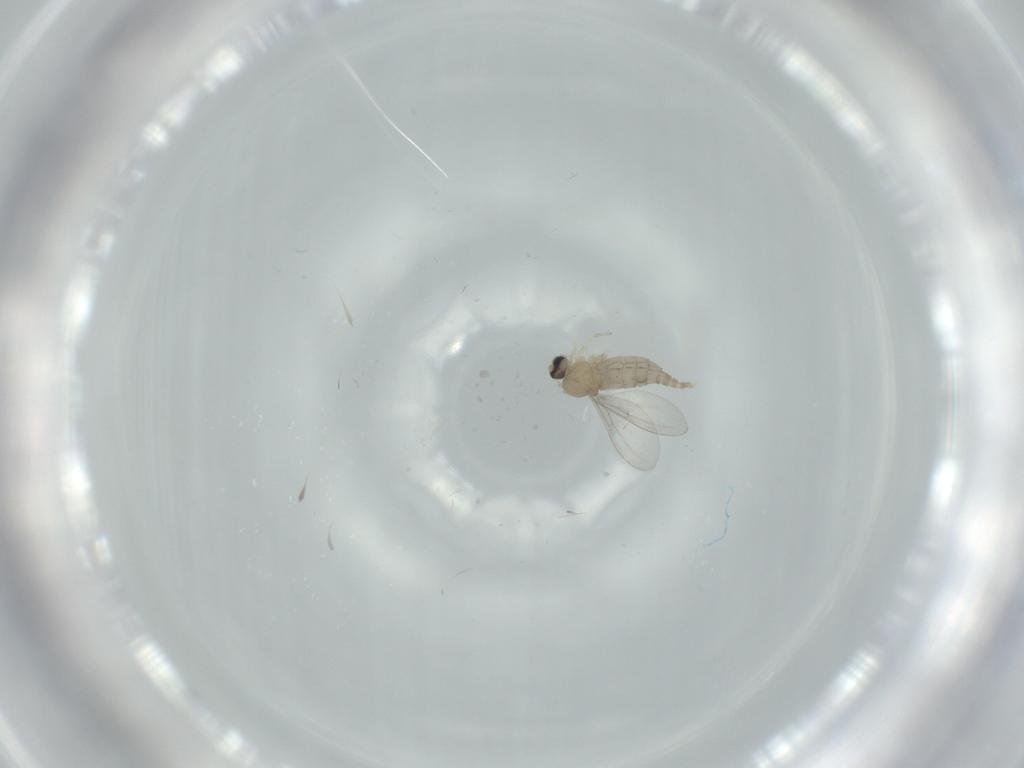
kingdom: Animalia
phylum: Arthropoda
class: Insecta
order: Diptera
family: Cecidomyiidae
